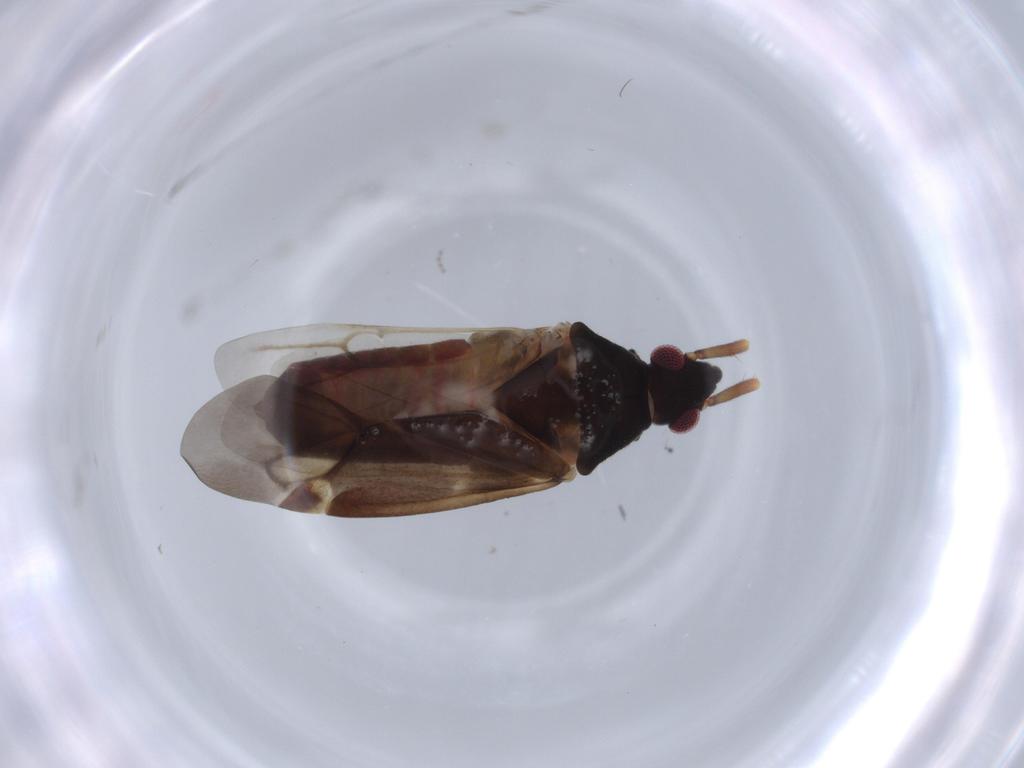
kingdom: Animalia
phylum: Arthropoda
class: Insecta
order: Hemiptera
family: Miridae
